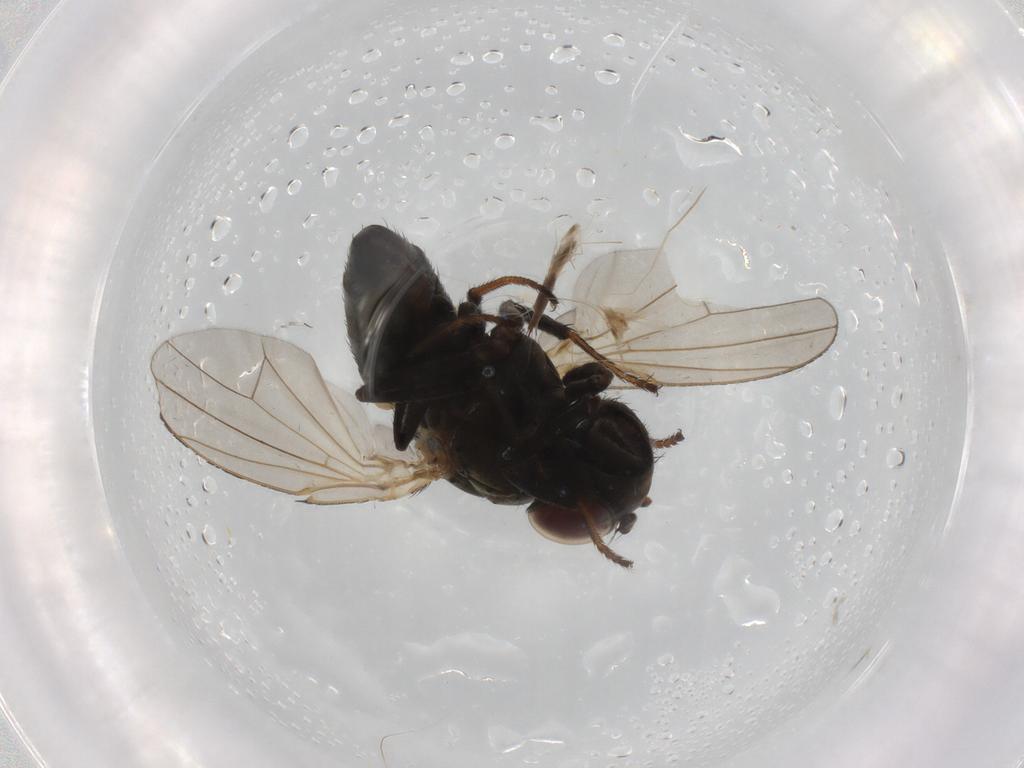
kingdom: Animalia
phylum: Arthropoda
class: Insecta
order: Diptera
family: Ephydridae
